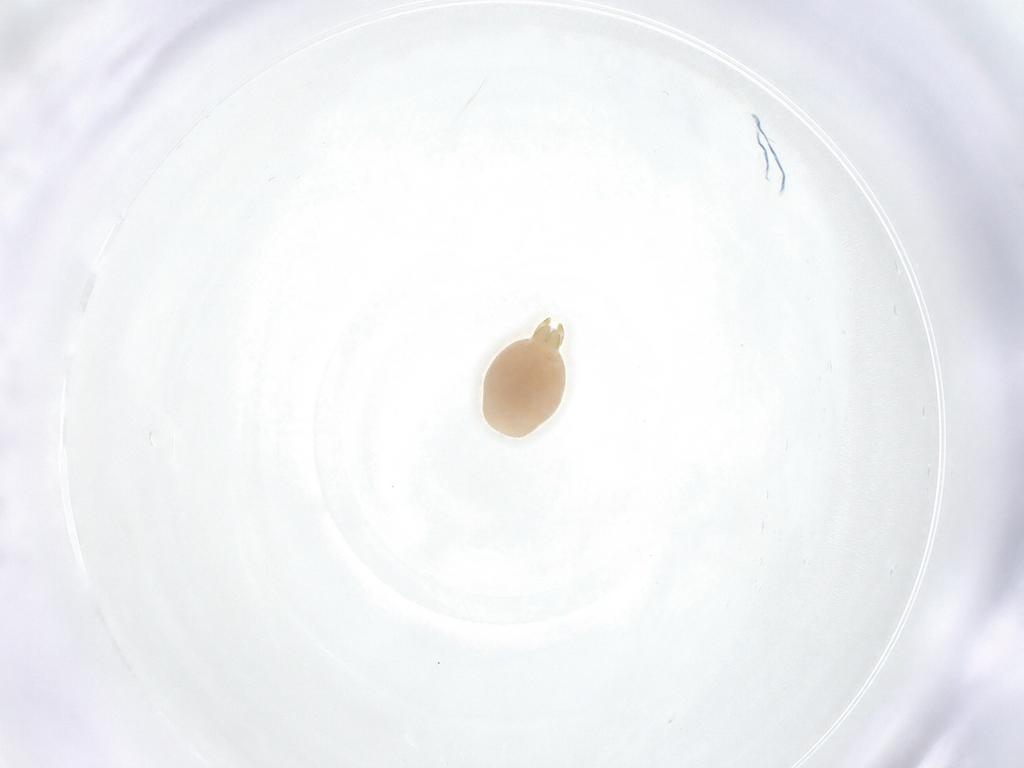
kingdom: Animalia
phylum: Arthropoda
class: Arachnida
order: Araneae
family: Cheiracanthiidae
